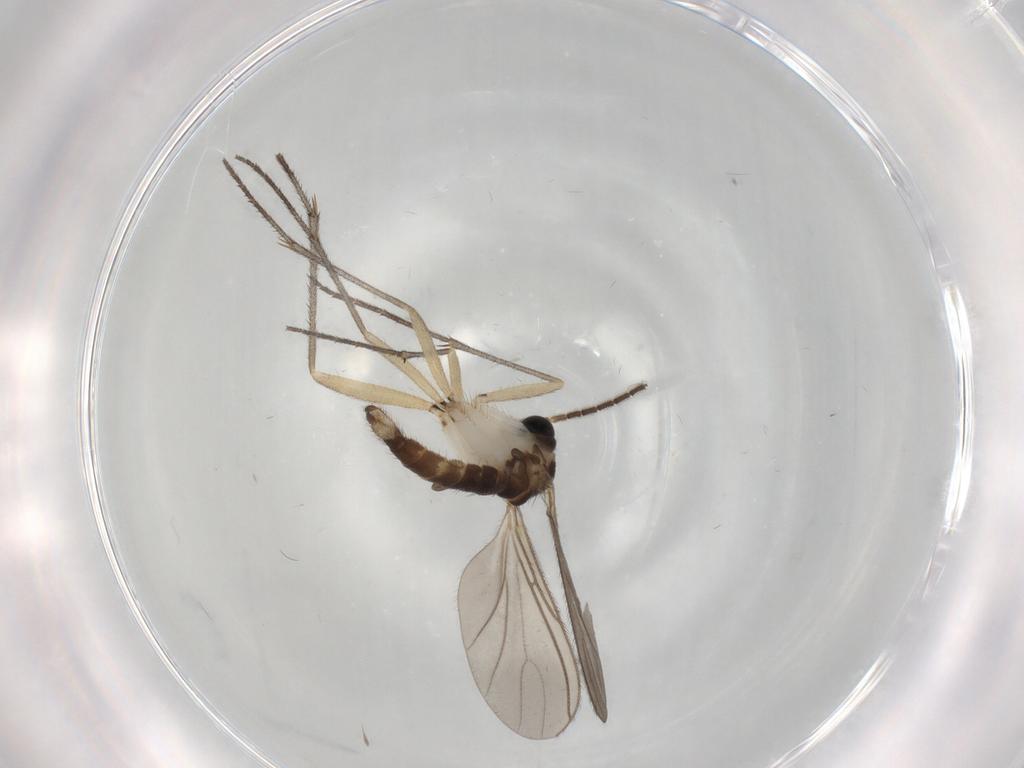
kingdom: Animalia
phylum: Arthropoda
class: Insecta
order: Diptera
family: Sciaridae
